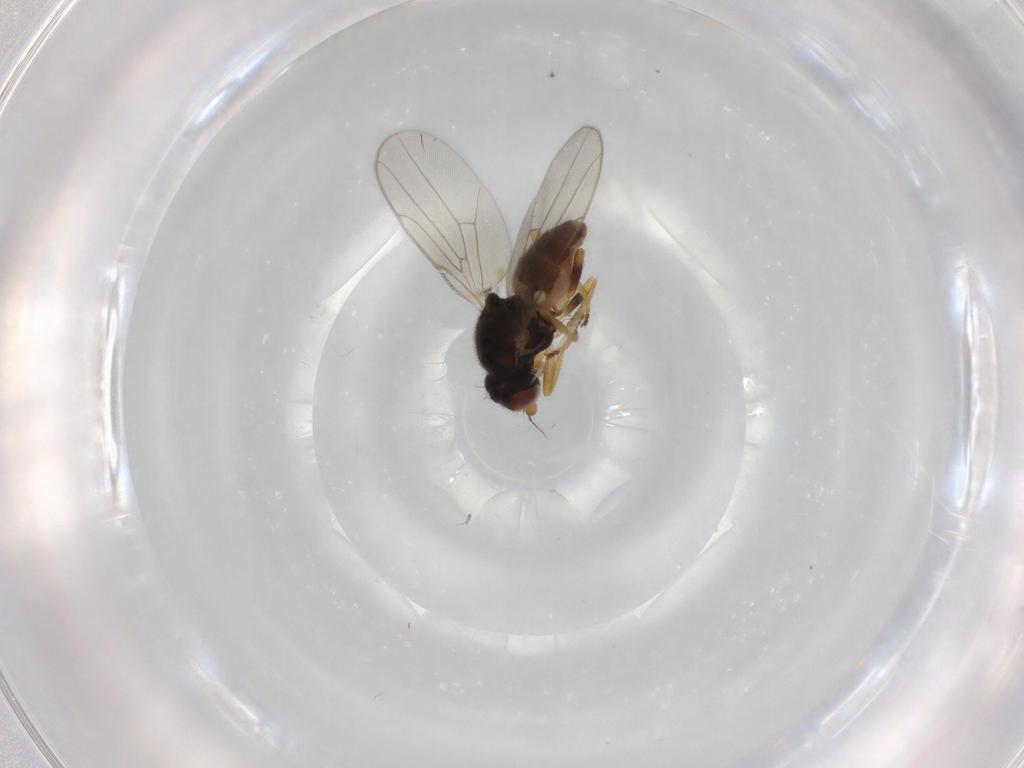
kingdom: Animalia
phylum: Arthropoda
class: Insecta
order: Diptera
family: Chloropidae
